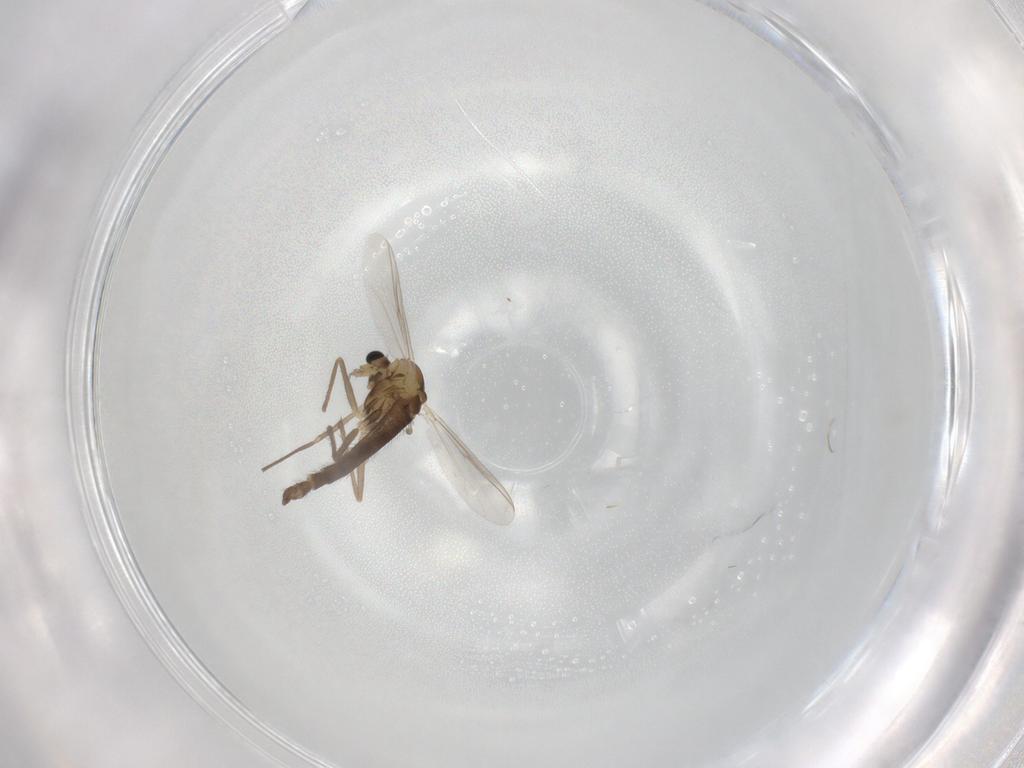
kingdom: Animalia
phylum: Arthropoda
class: Insecta
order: Diptera
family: Chironomidae
